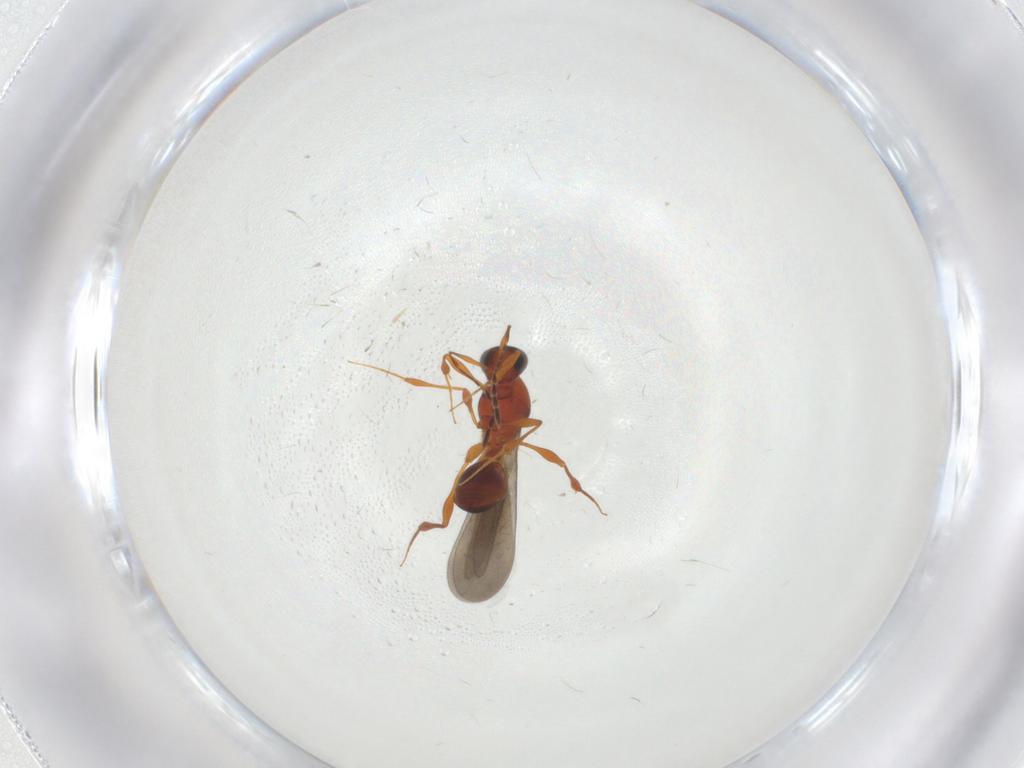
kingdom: Animalia
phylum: Arthropoda
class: Insecta
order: Hymenoptera
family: Platygastridae
